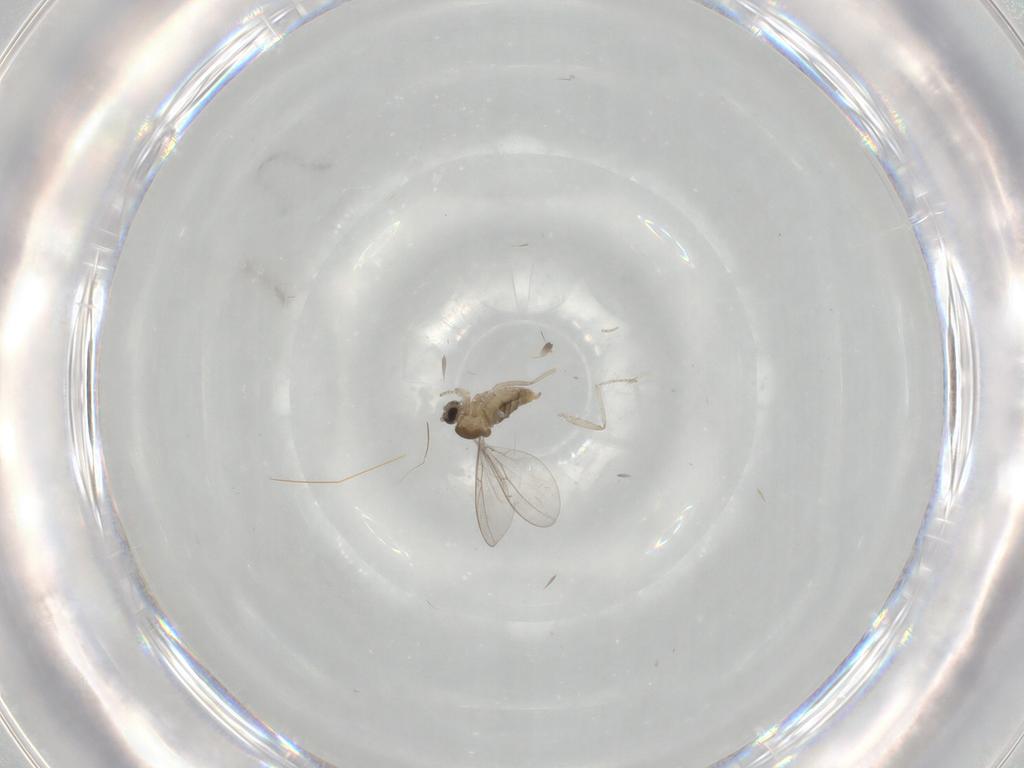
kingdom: Animalia
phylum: Arthropoda
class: Insecta
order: Diptera
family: Cecidomyiidae
